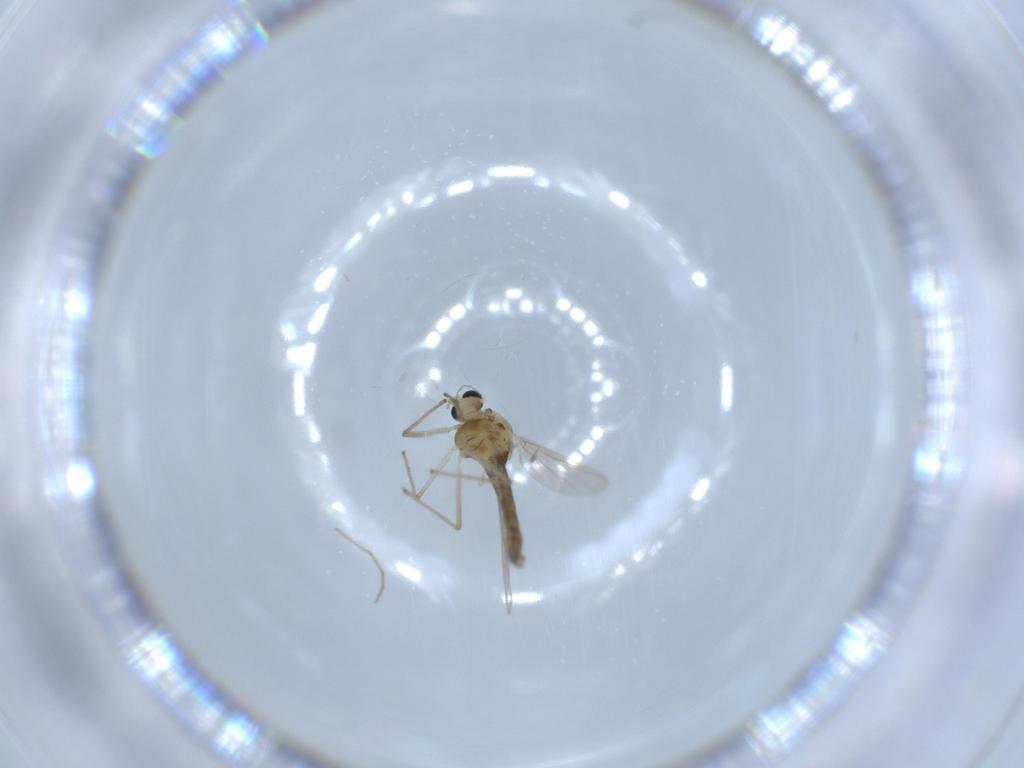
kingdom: Animalia
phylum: Arthropoda
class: Insecta
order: Diptera
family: Chironomidae
